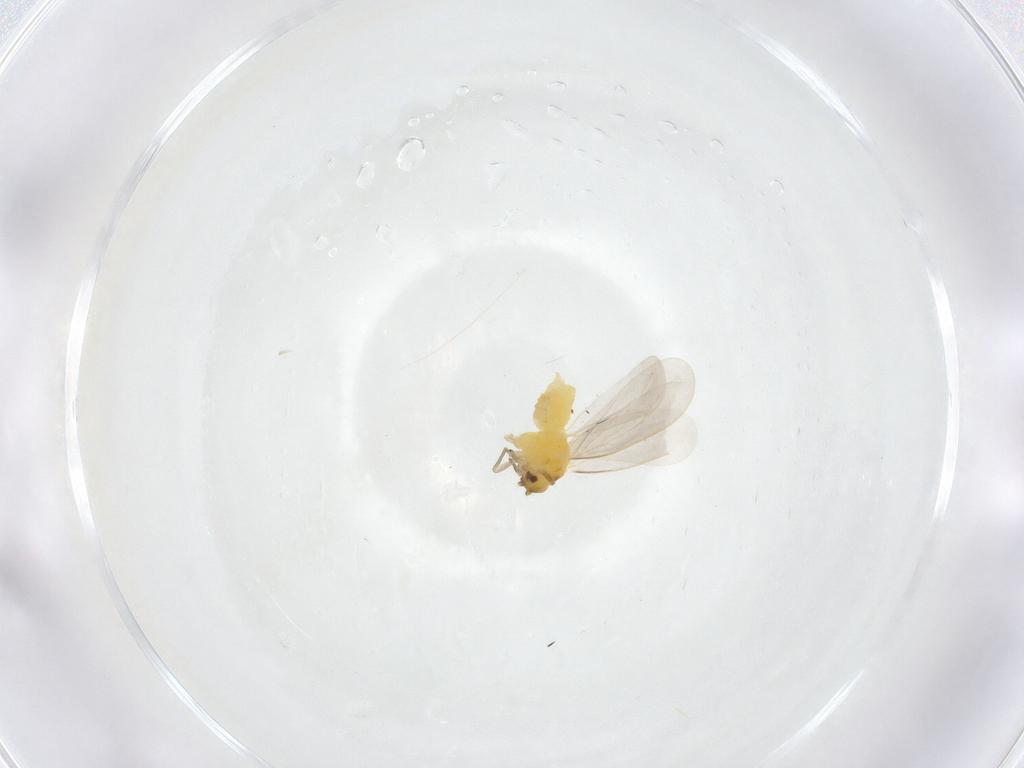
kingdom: Animalia
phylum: Arthropoda
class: Insecta
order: Hemiptera
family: Aleyrodidae
